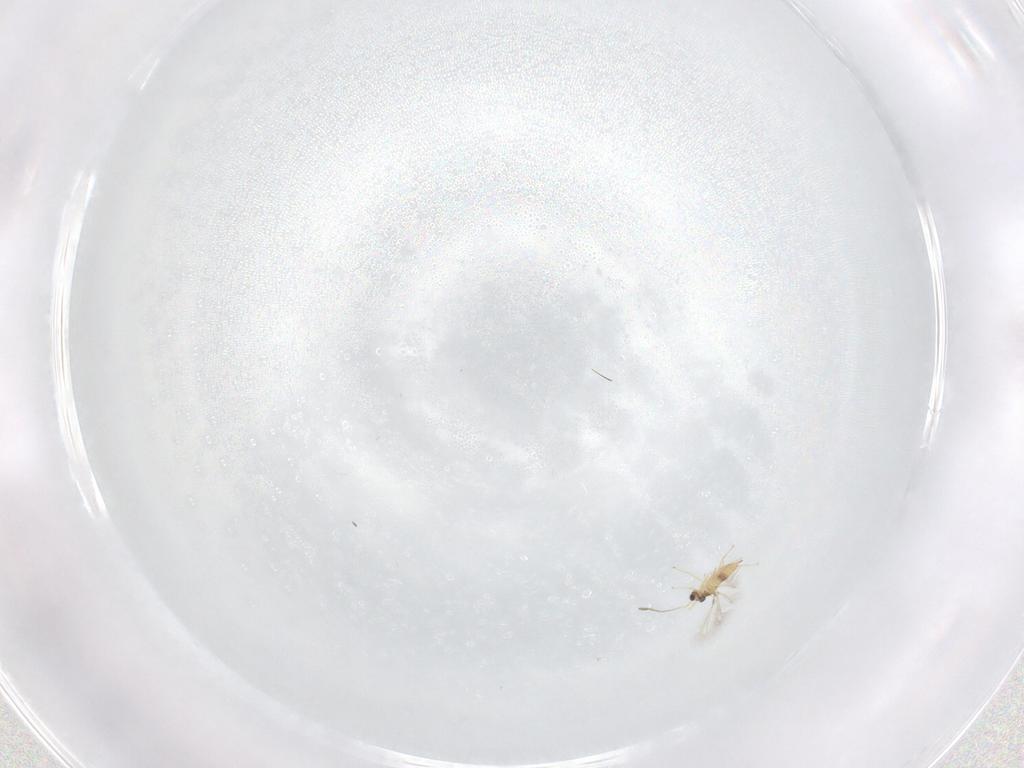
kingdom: Animalia
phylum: Arthropoda
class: Insecta
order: Hymenoptera
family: Mymaridae
